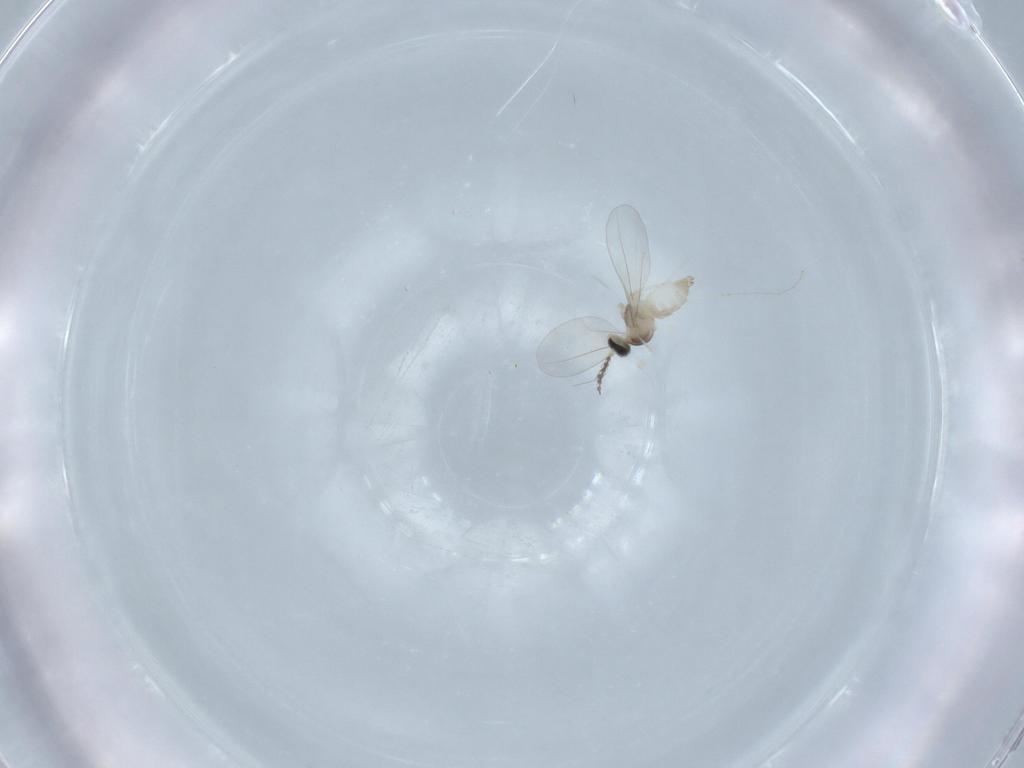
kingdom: Animalia
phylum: Arthropoda
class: Insecta
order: Diptera
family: Cecidomyiidae
